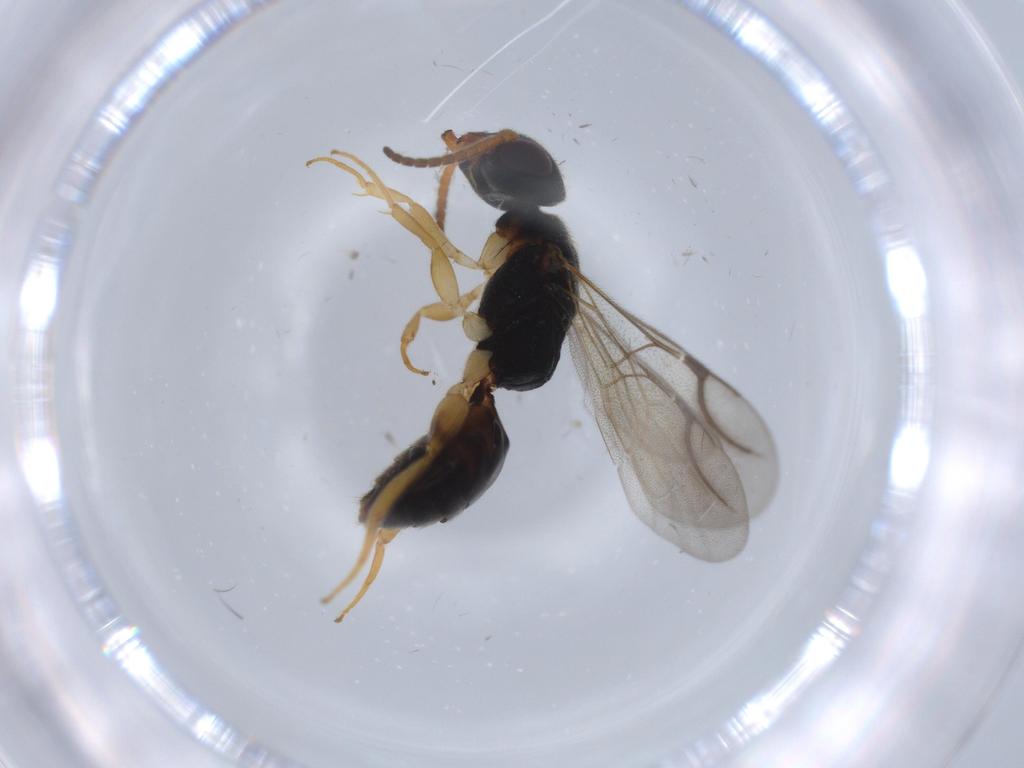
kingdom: Animalia
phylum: Arthropoda
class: Insecta
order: Hemiptera
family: Aleyrodidae
